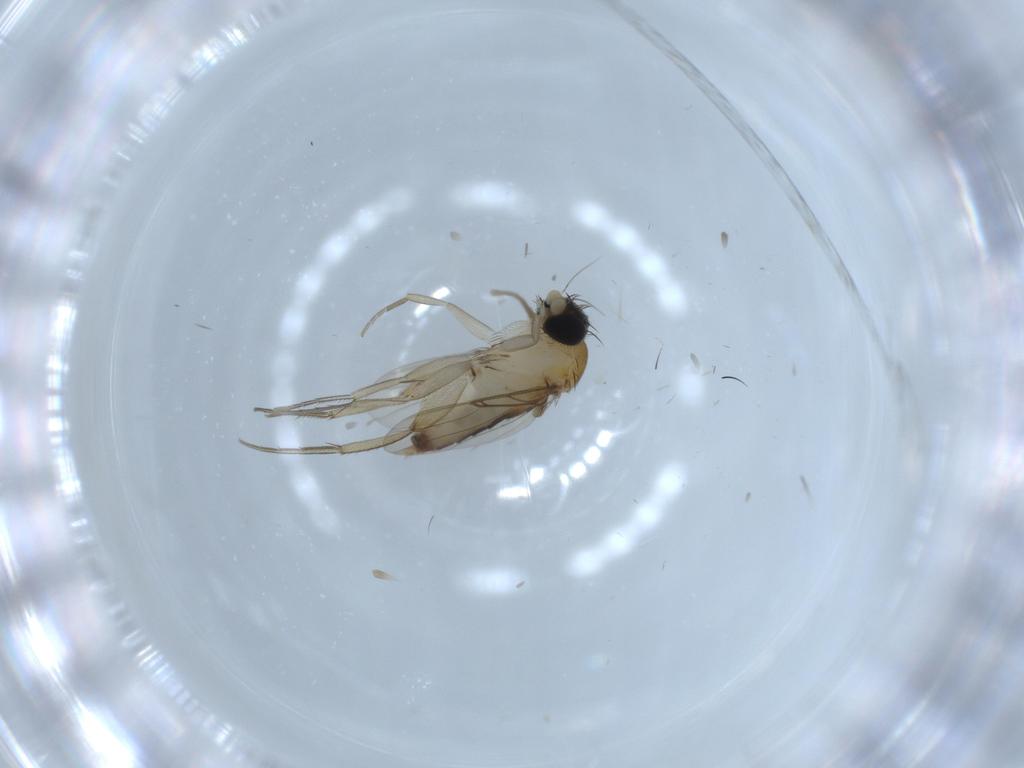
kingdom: Animalia
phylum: Arthropoda
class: Insecta
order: Diptera
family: Phoridae
